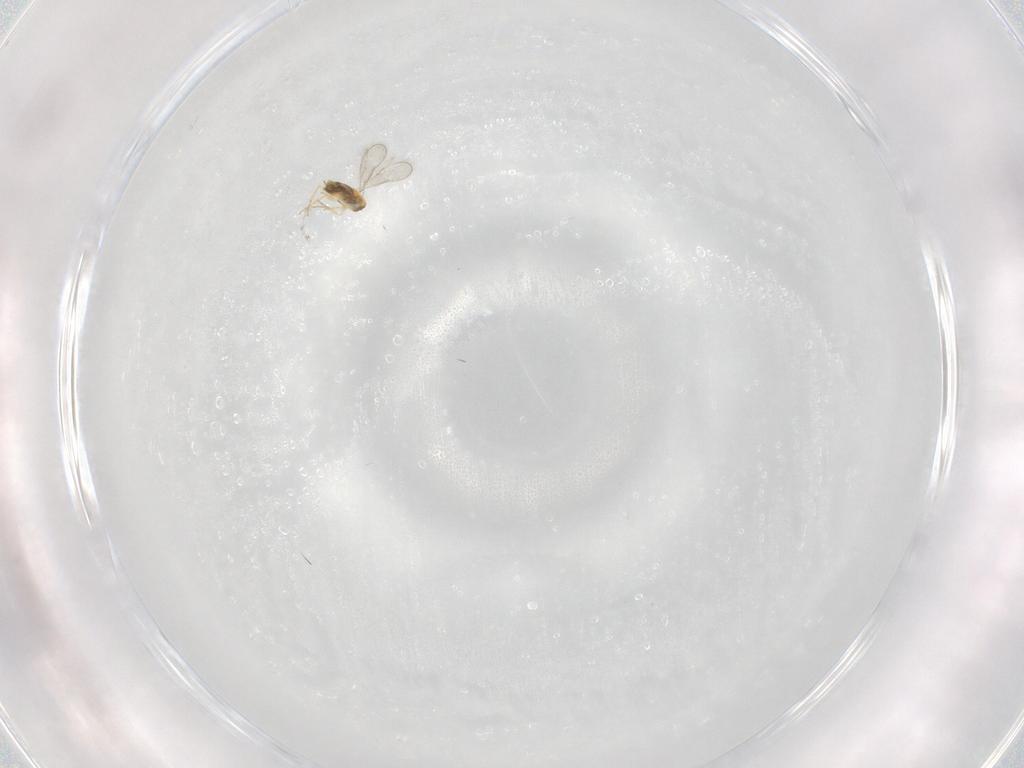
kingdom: Animalia
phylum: Arthropoda
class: Insecta
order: Hymenoptera
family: Aphelinidae
